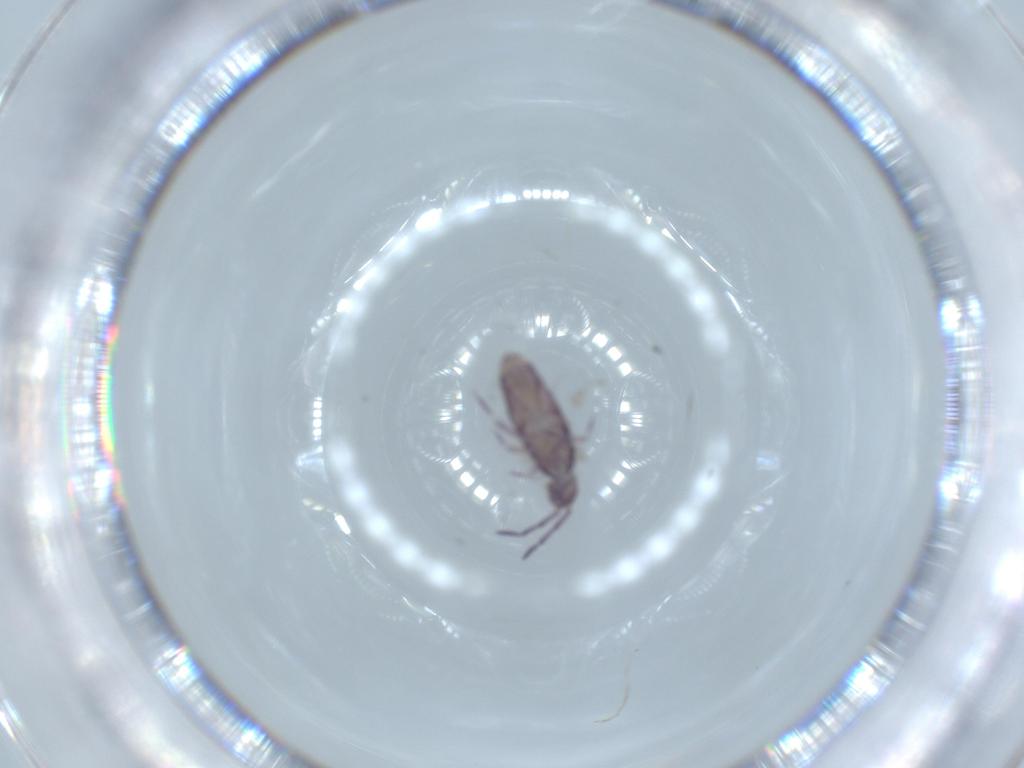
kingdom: Animalia
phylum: Arthropoda
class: Collembola
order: Entomobryomorpha
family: Entomobryidae
